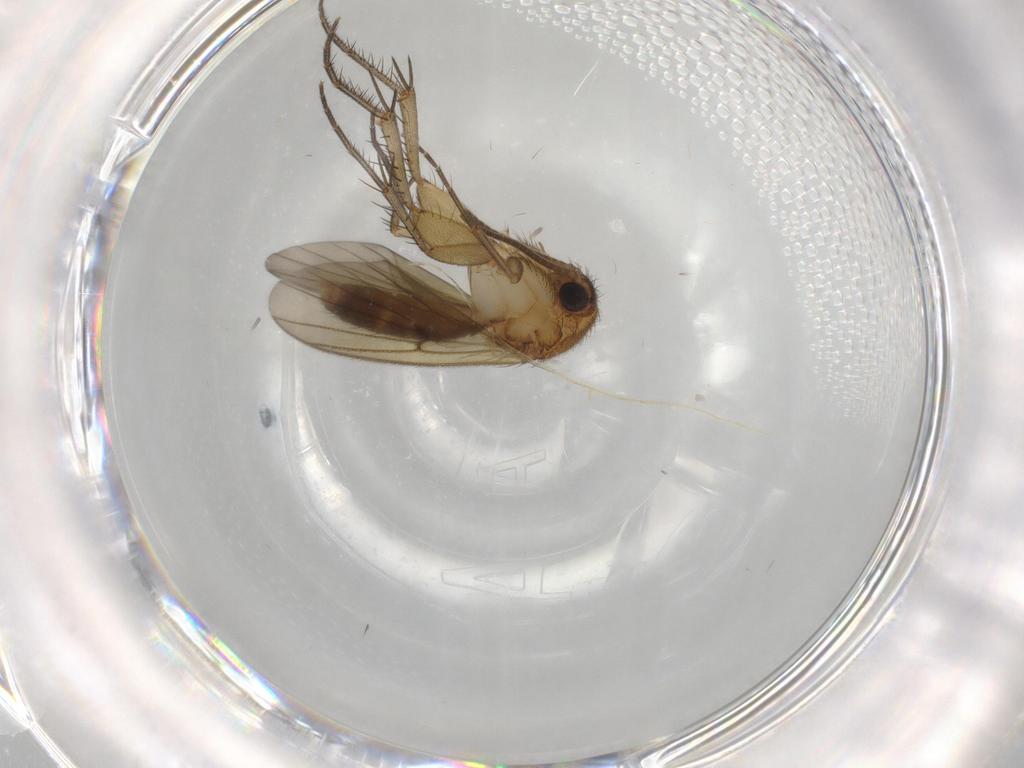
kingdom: Animalia
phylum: Arthropoda
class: Insecta
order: Diptera
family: Mycetophilidae
